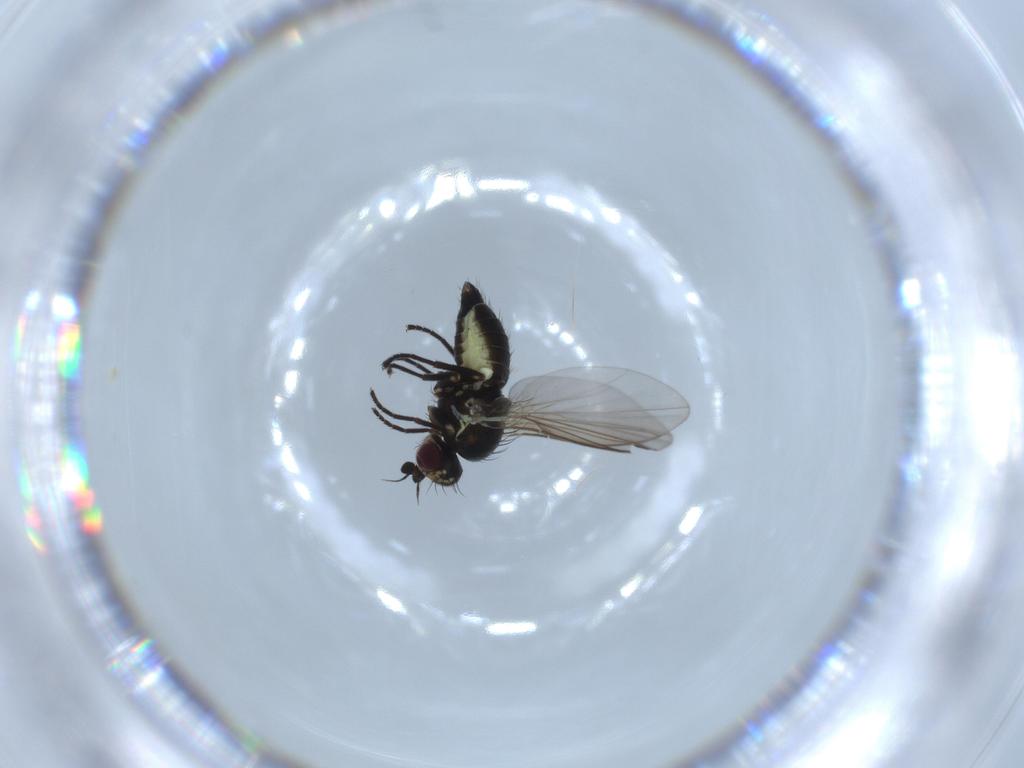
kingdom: Animalia
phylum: Arthropoda
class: Insecta
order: Diptera
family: Agromyzidae
